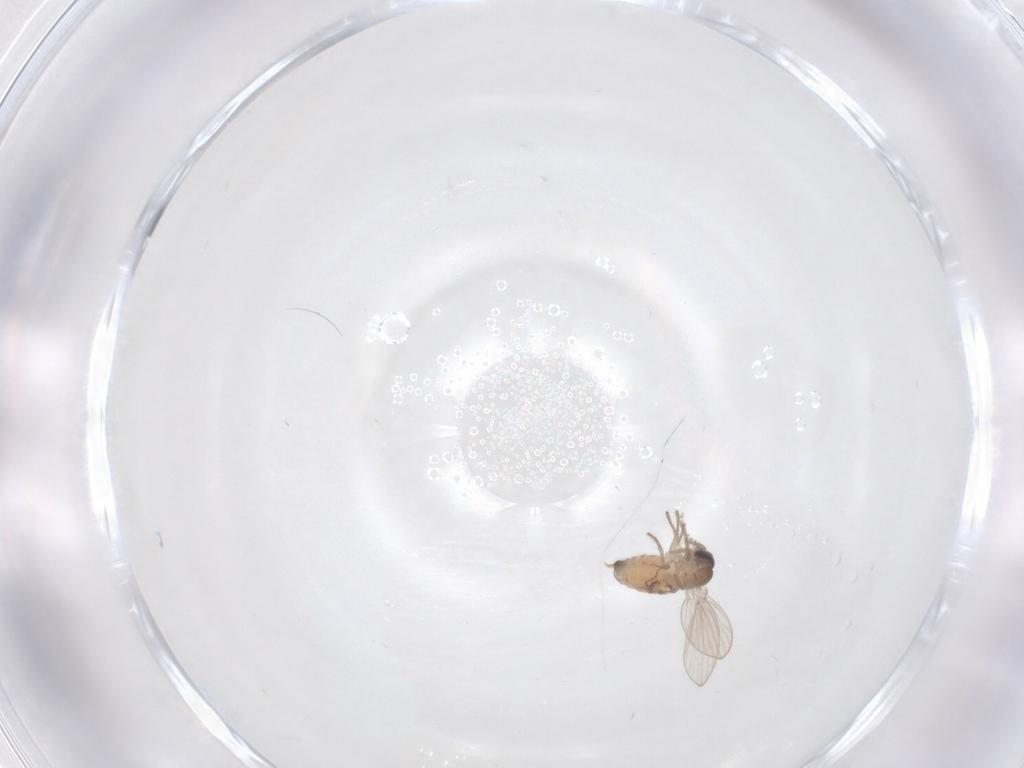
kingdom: Animalia
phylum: Arthropoda
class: Insecta
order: Diptera
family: Psychodidae
